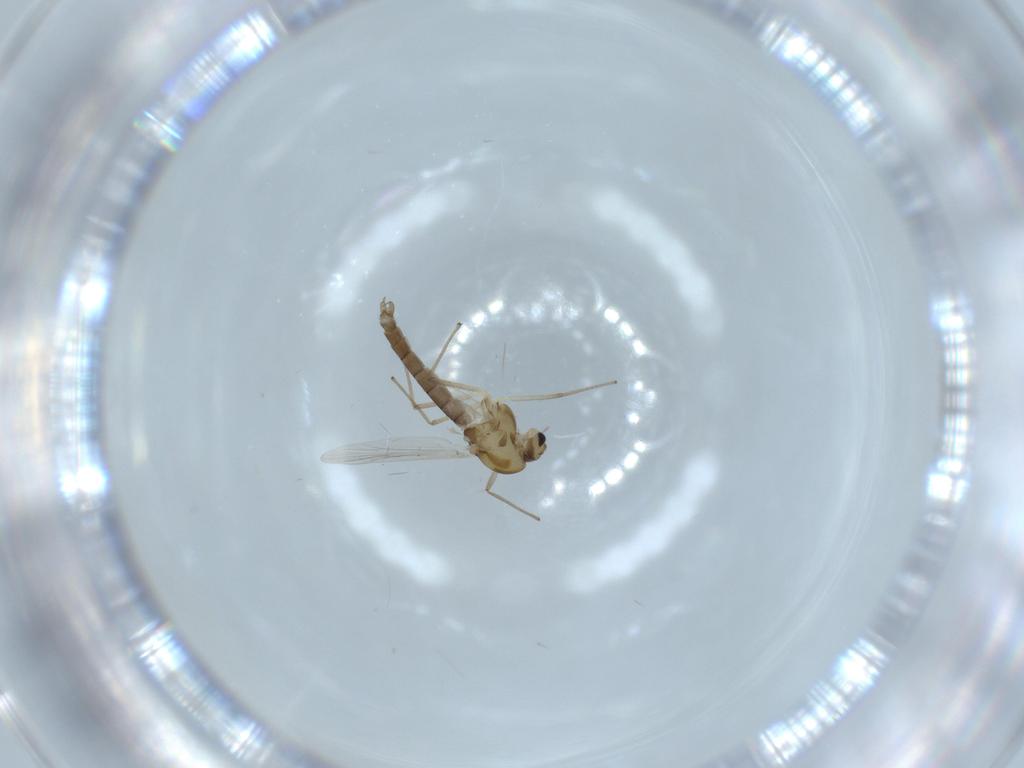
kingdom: Animalia
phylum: Arthropoda
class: Insecta
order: Diptera
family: Chironomidae
